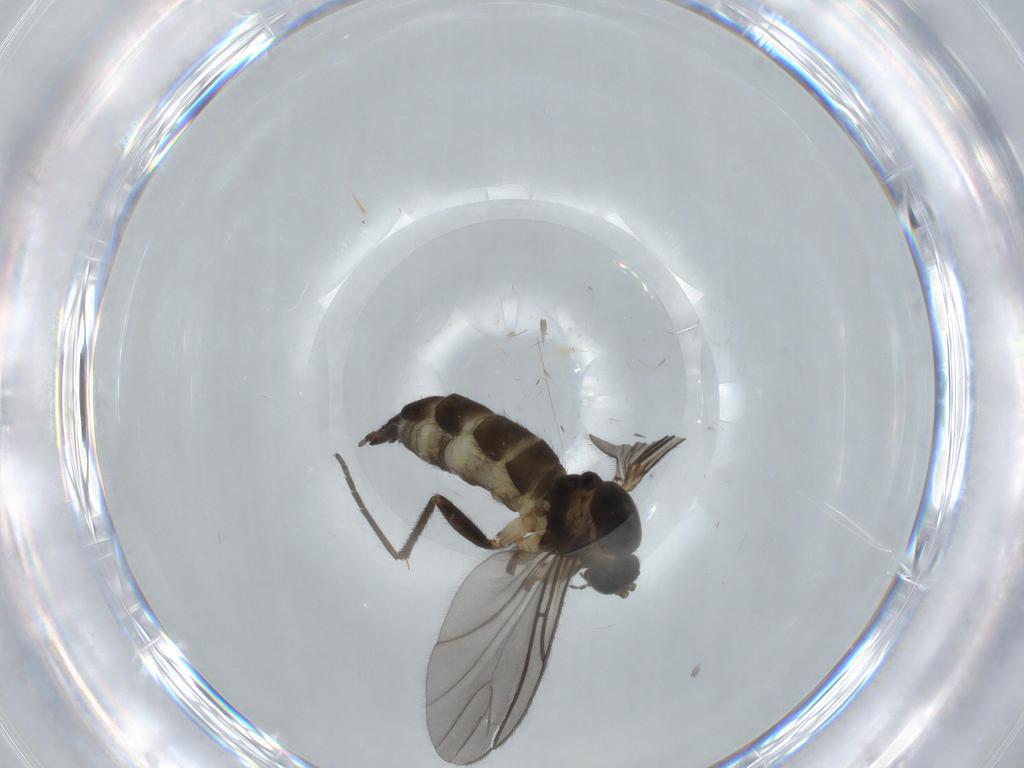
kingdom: Animalia
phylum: Arthropoda
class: Insecta
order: Diptera
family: Sciaridae
